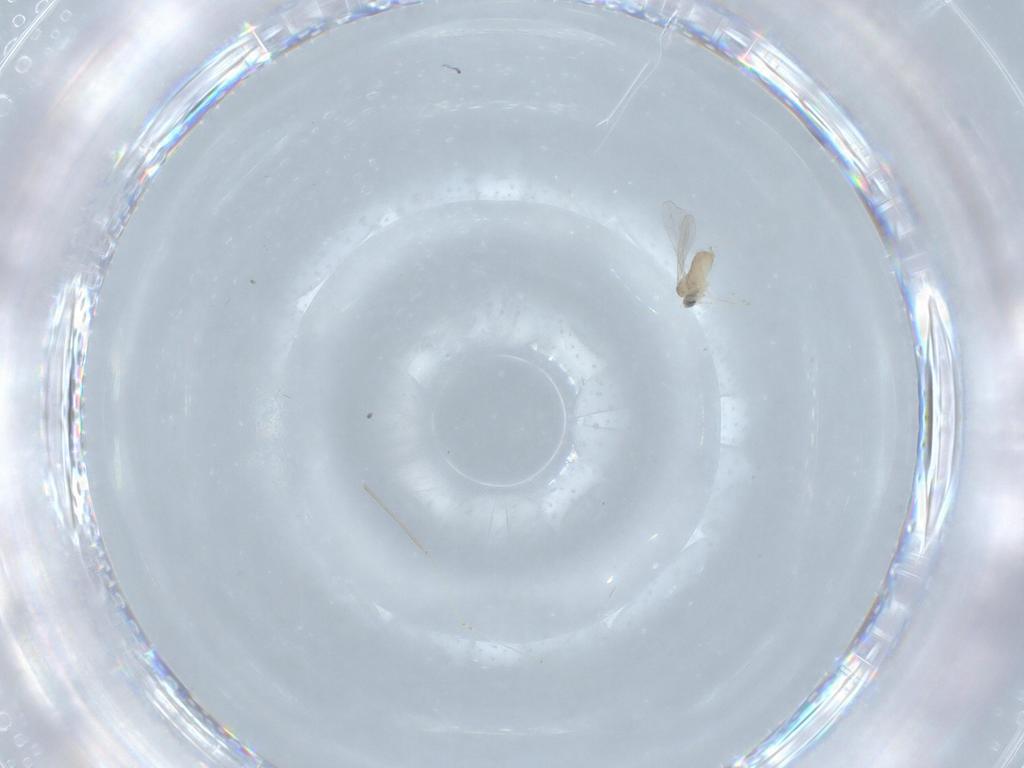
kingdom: Animalia
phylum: Arthropoda
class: Insecta
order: Diptera
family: Cecidomyiidae
